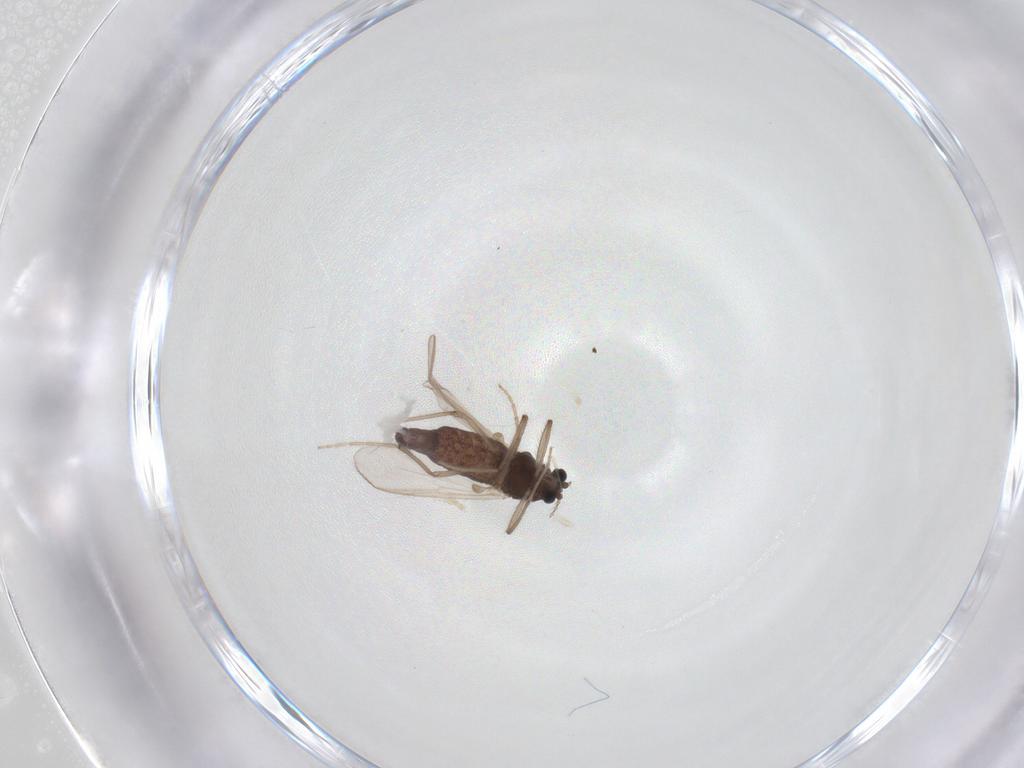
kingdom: Animalia
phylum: Arthropoda
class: Insecta
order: Diptera
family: Chironomidae
